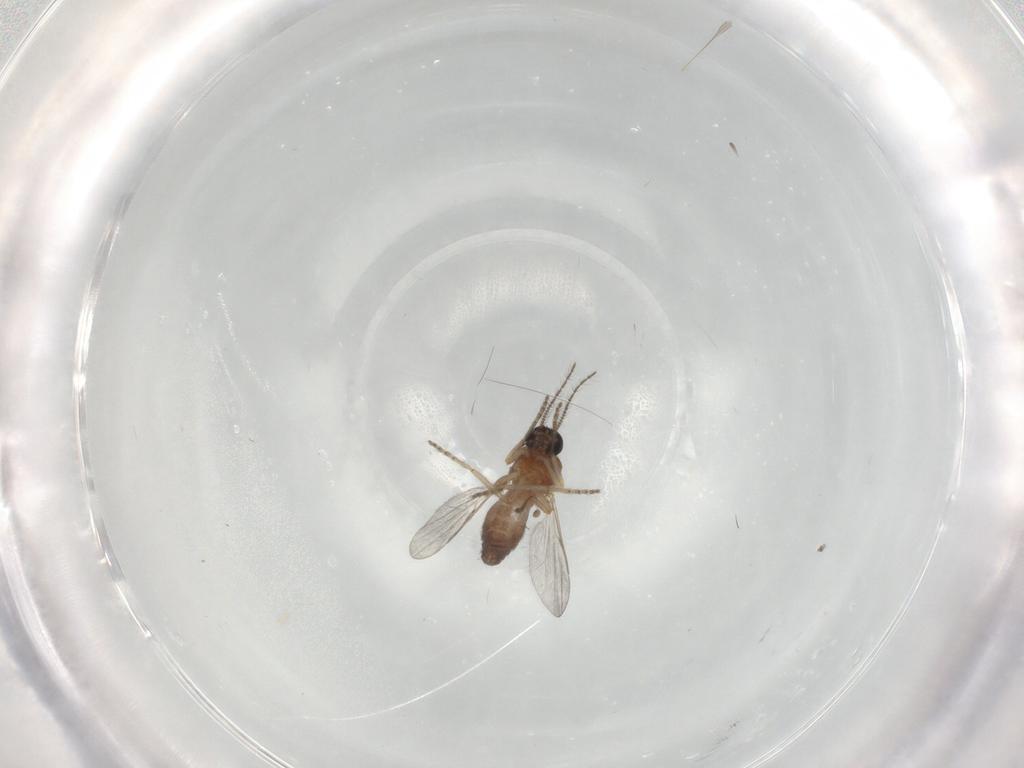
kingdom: Animalia
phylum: Arthropoda
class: Insecta
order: Diptera
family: Ceratopogonidae
